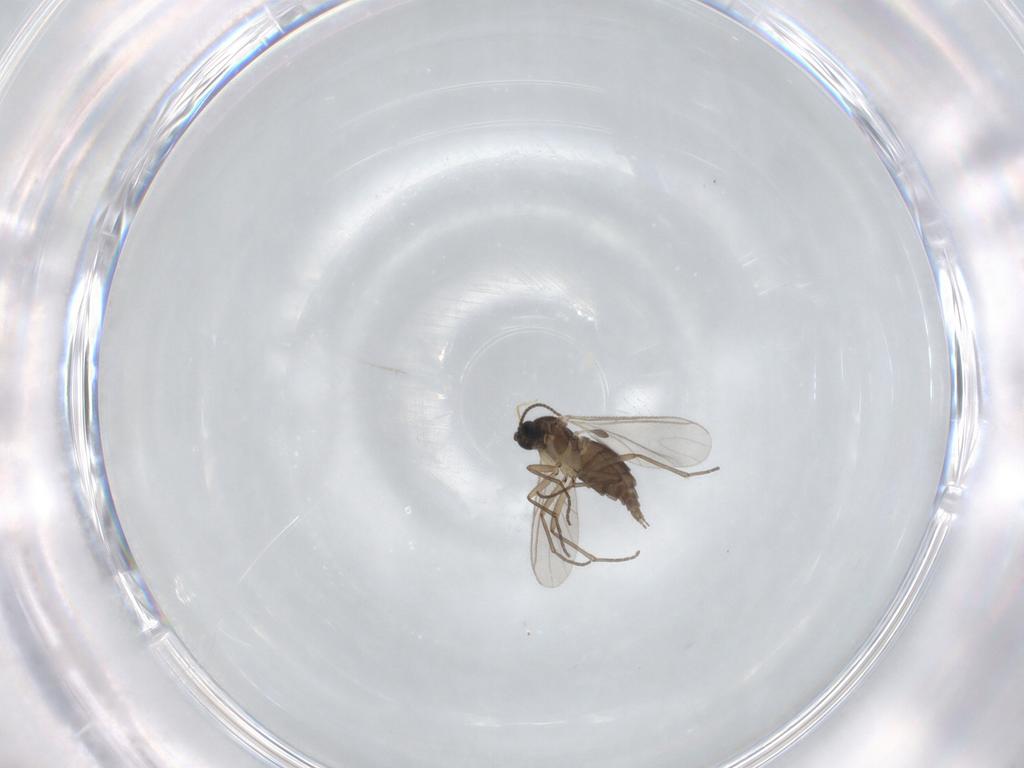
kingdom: Animalia
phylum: Arthropoda
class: Insecta
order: Diptera
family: Sciaridae
